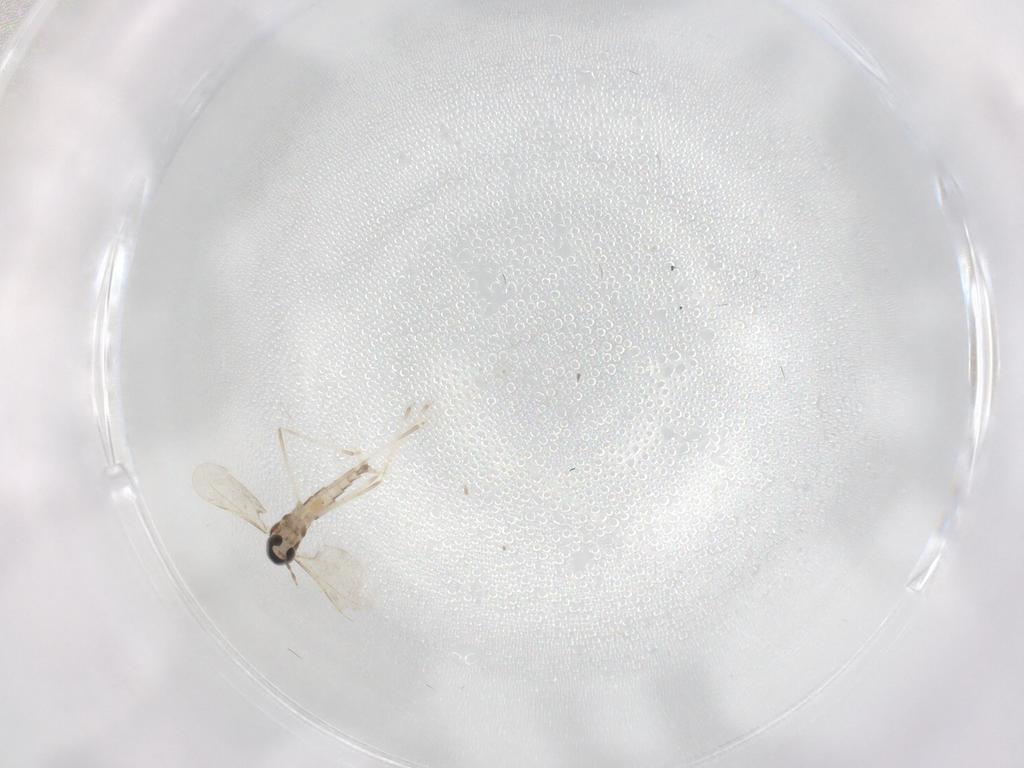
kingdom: Animalia
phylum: Arthropoda
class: Insecta
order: Diptera
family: Cecidomyiidae
